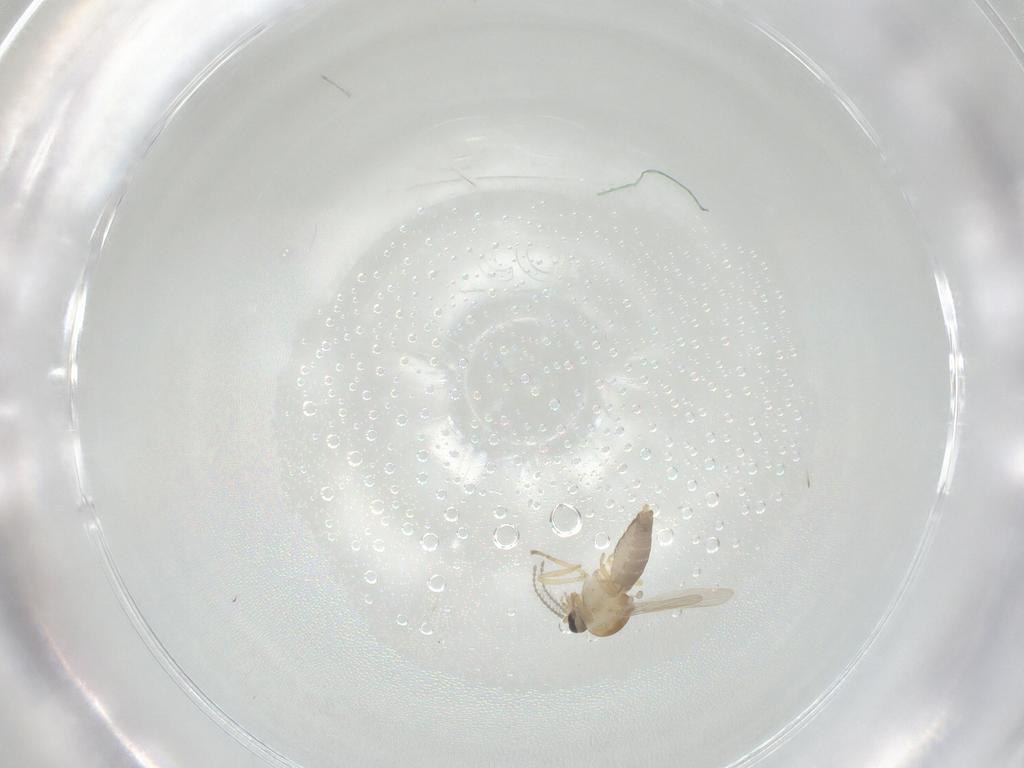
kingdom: Animalia
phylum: Arthropoda
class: Insecta
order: Diptera
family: Ceratopogonidae
